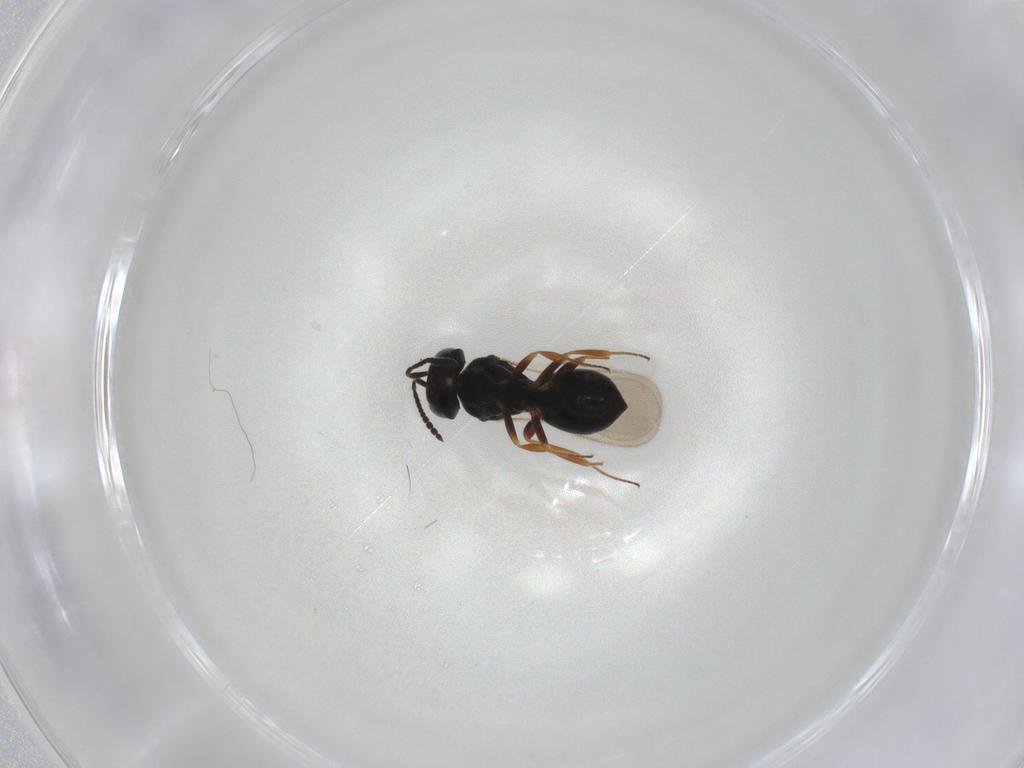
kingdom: Animalia
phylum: Arthropoda
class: Insecta
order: Hymenoptera
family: Scelionidae
